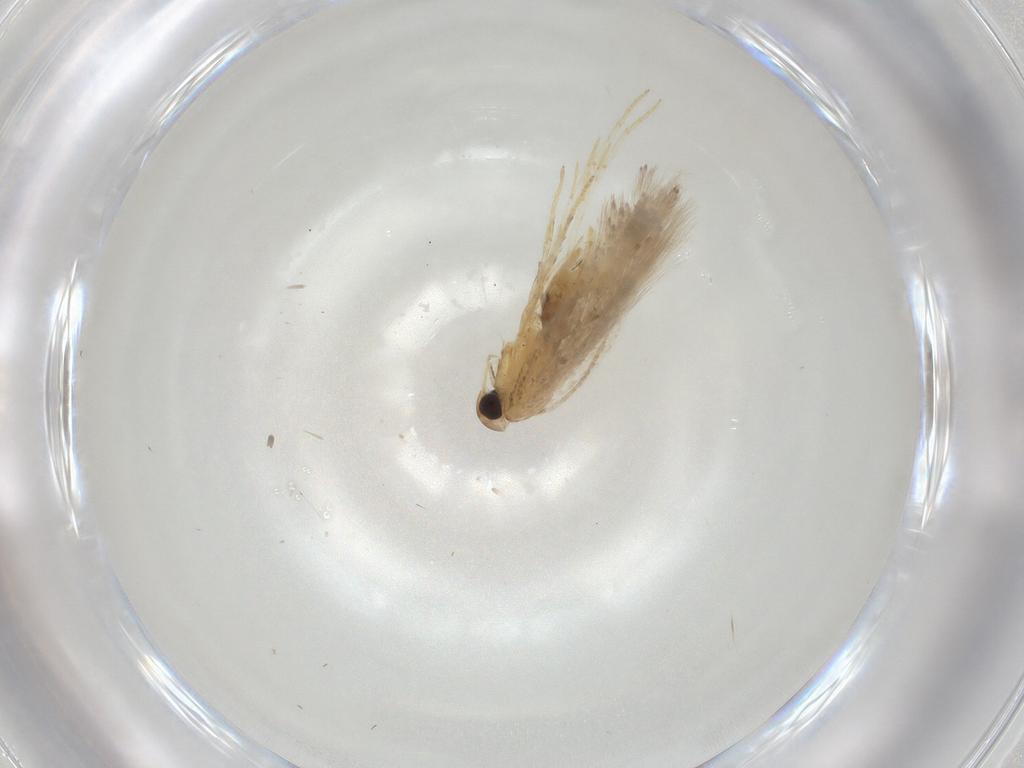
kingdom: Animalia
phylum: Arthropoda
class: Insecta
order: Lepidoptera
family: Gelechiidae
